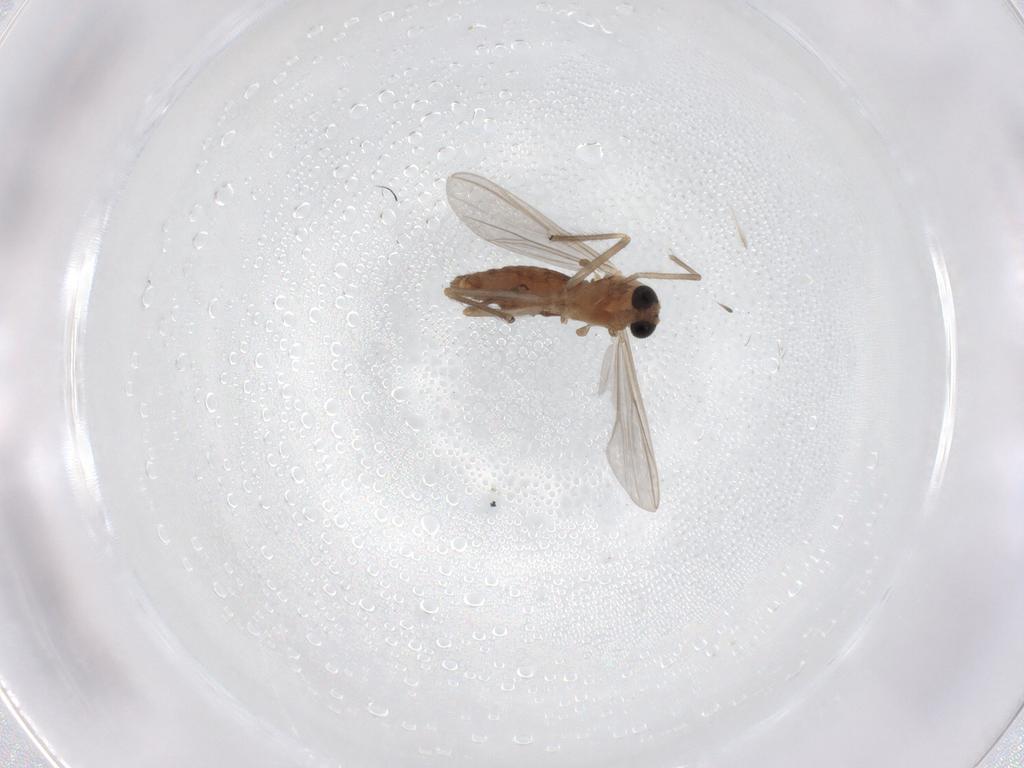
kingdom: Animalia
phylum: Arthropoda
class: Insecta
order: Diptera
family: Chironomidae
